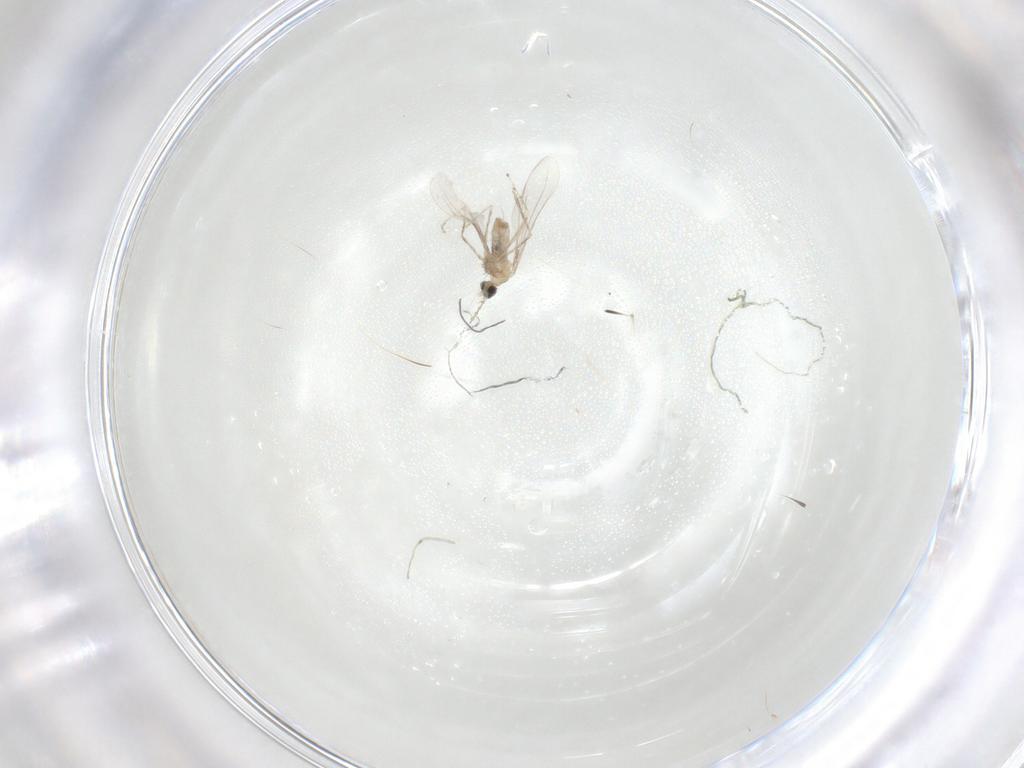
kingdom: Animalia
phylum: Arthropoda
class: Insecta
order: Diptera
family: Cecidomyiidae
